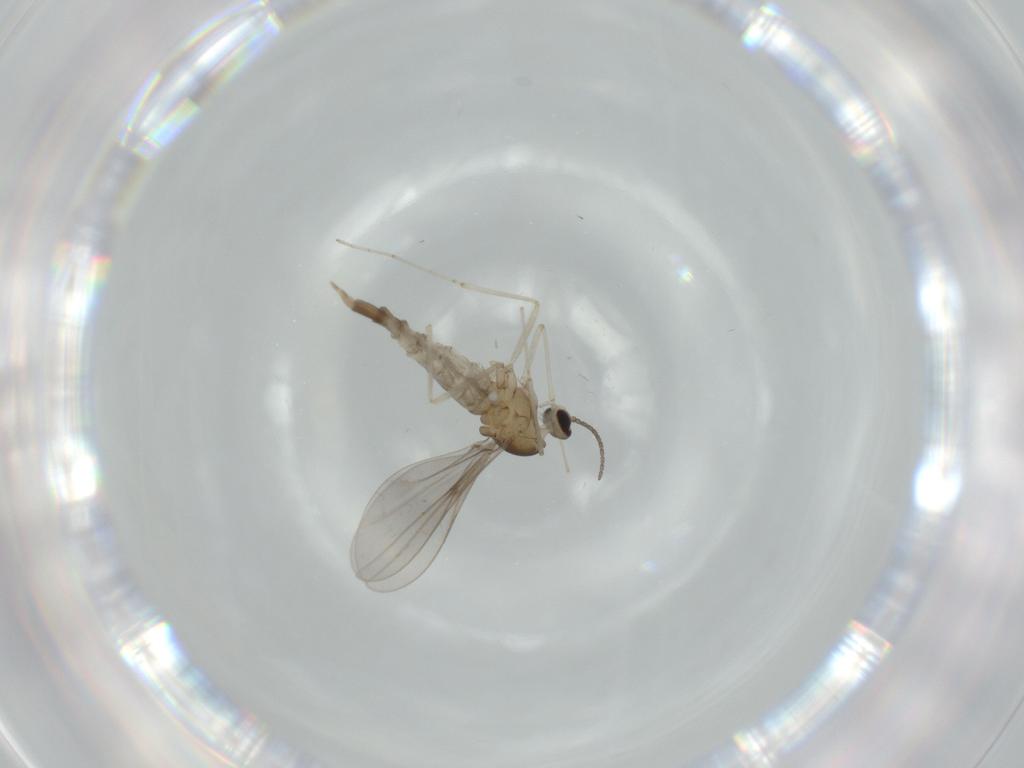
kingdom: Animalia
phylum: Arthropoda
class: Insecta
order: Diptera
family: Cecidomyiidae
